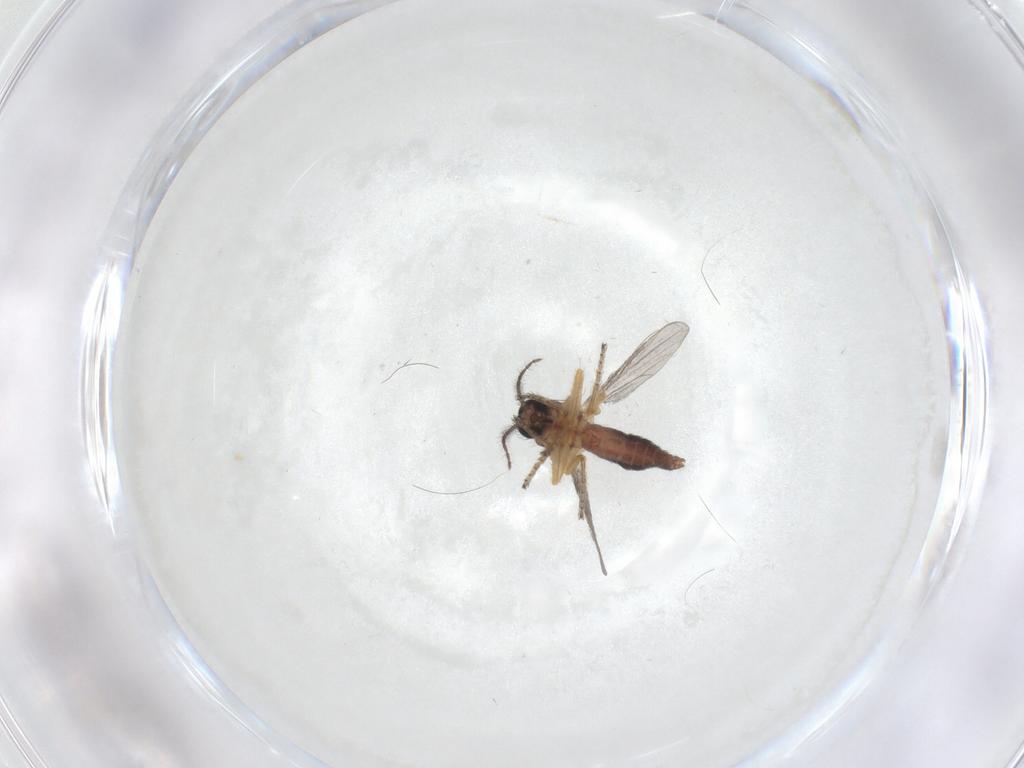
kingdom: Animalia
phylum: Arthropoda
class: Insecta
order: Diptera
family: Ceratopogonidae
